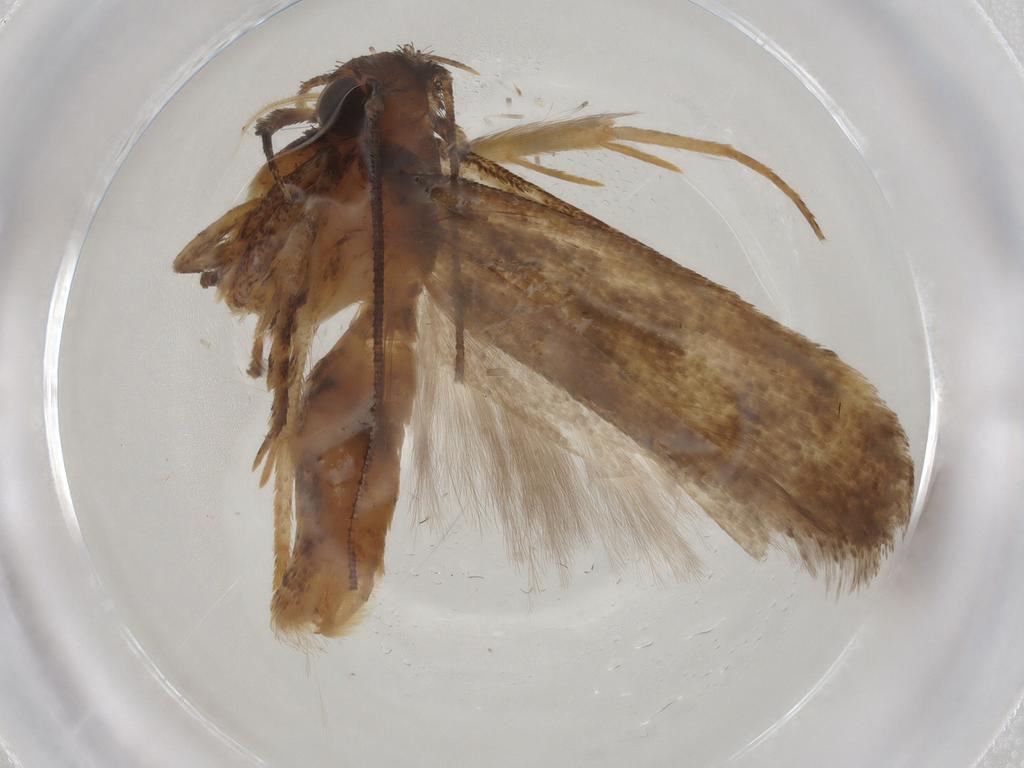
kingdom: Animalia
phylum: Arthropoda
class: Insecta
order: Lepidoptera
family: Gelechiidae
